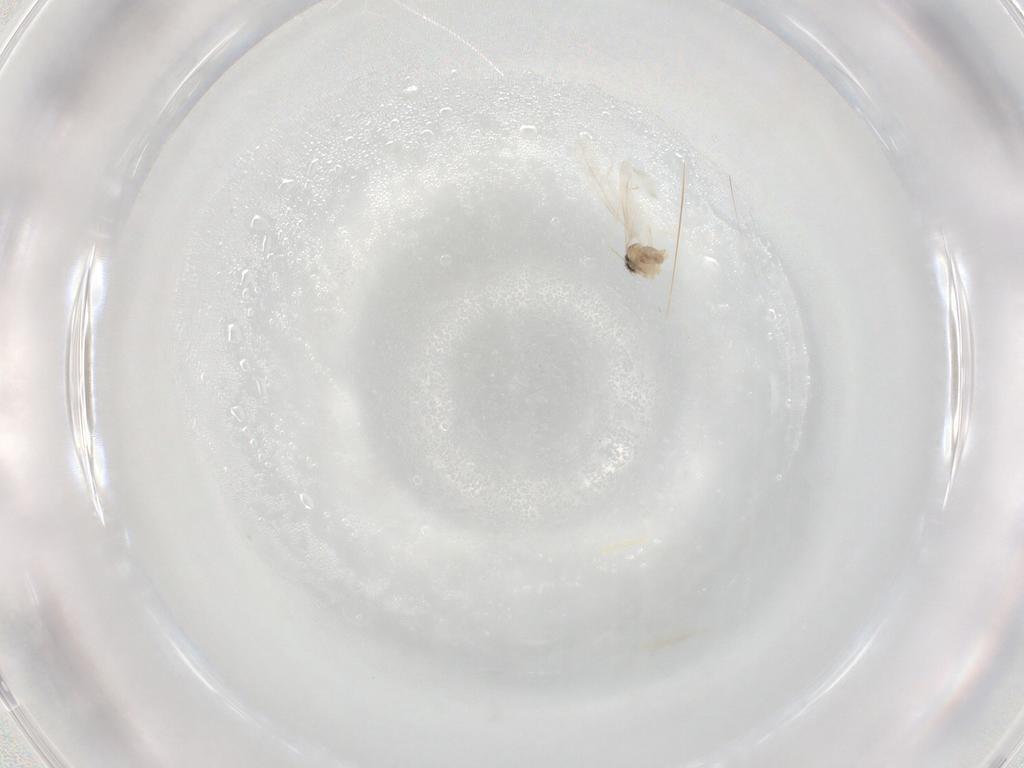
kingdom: Animalia
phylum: Arthropoda
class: Insecta
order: Diptera
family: Cecidomyiidae
